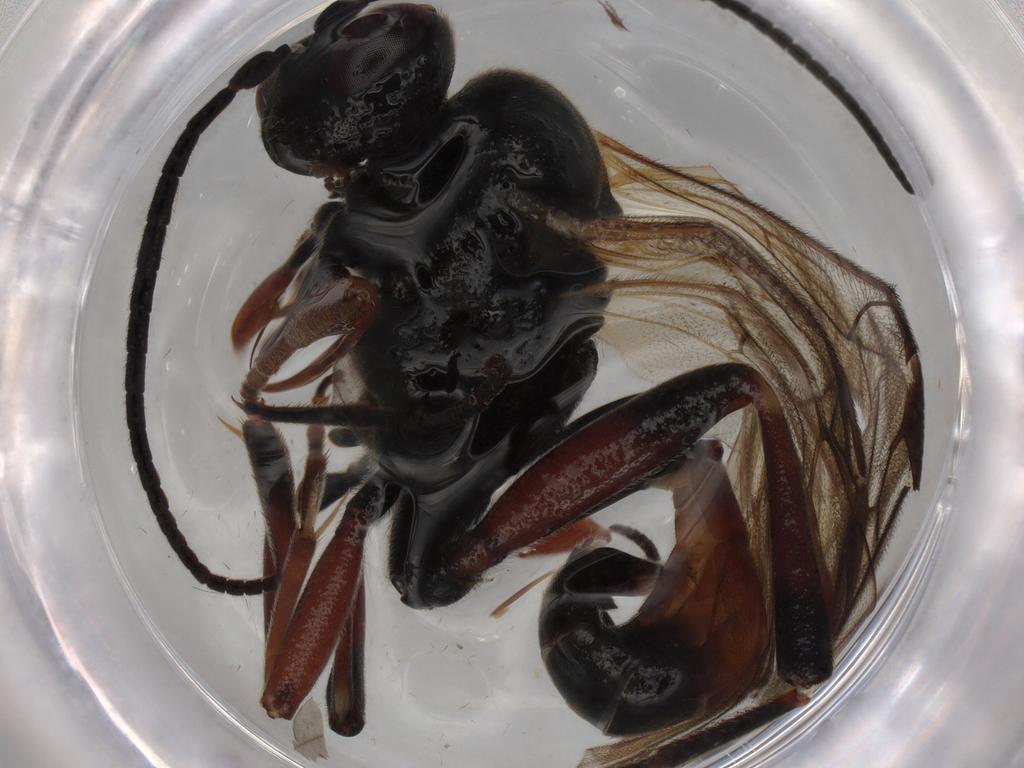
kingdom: Animalia
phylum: Arthropoda
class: Insecta
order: Hymenoptera
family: Ichneumonidae
